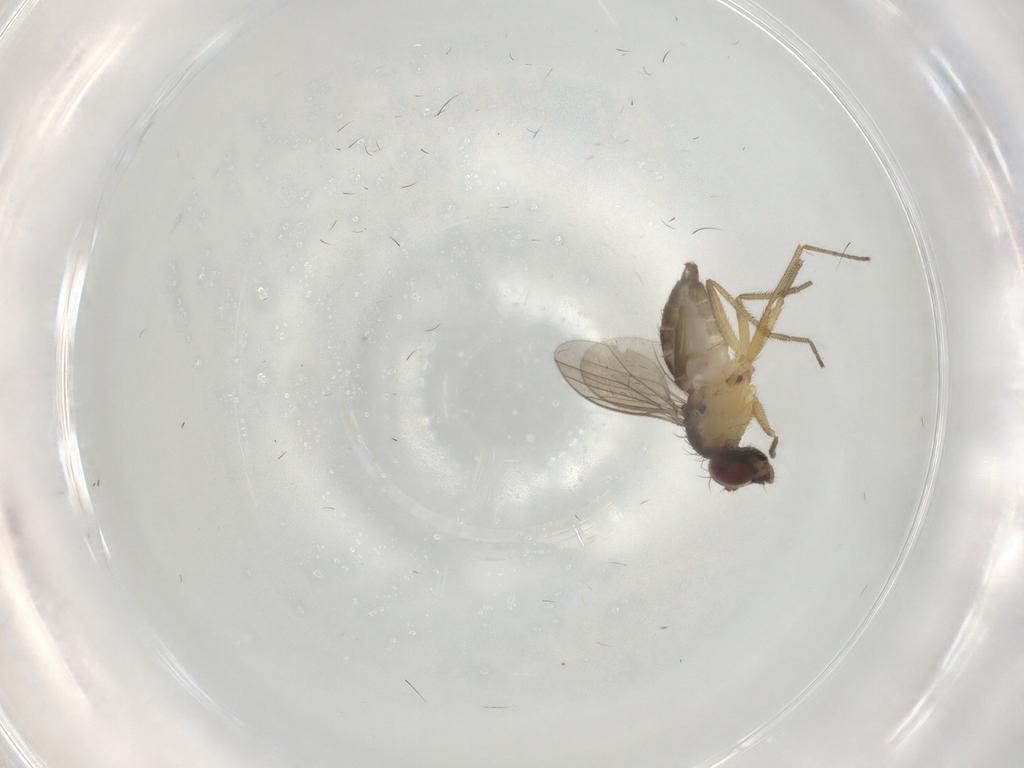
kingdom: Animalia
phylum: Arthropoda
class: Insecta
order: Diptera
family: Dolichopodidae
